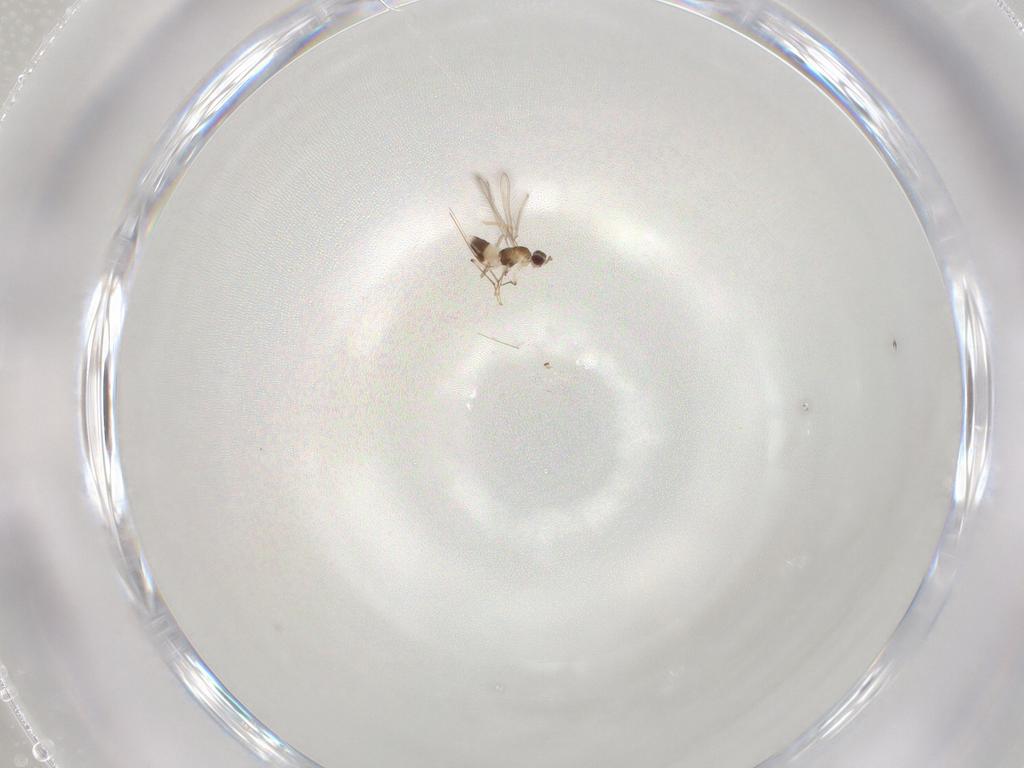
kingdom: Animalia
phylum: Arthropoda
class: Insecta
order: Hymenoptera
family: Mymaridae
